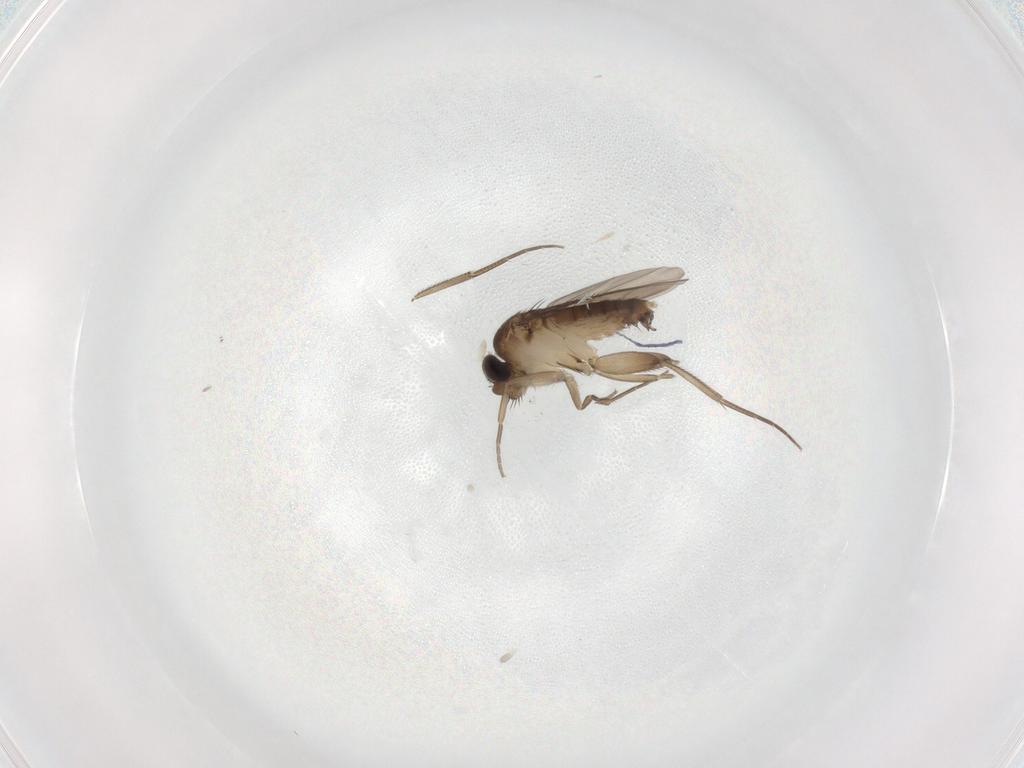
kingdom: Animalia
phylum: Arthropoda
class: Insecta
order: Diptera
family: Phoridae
